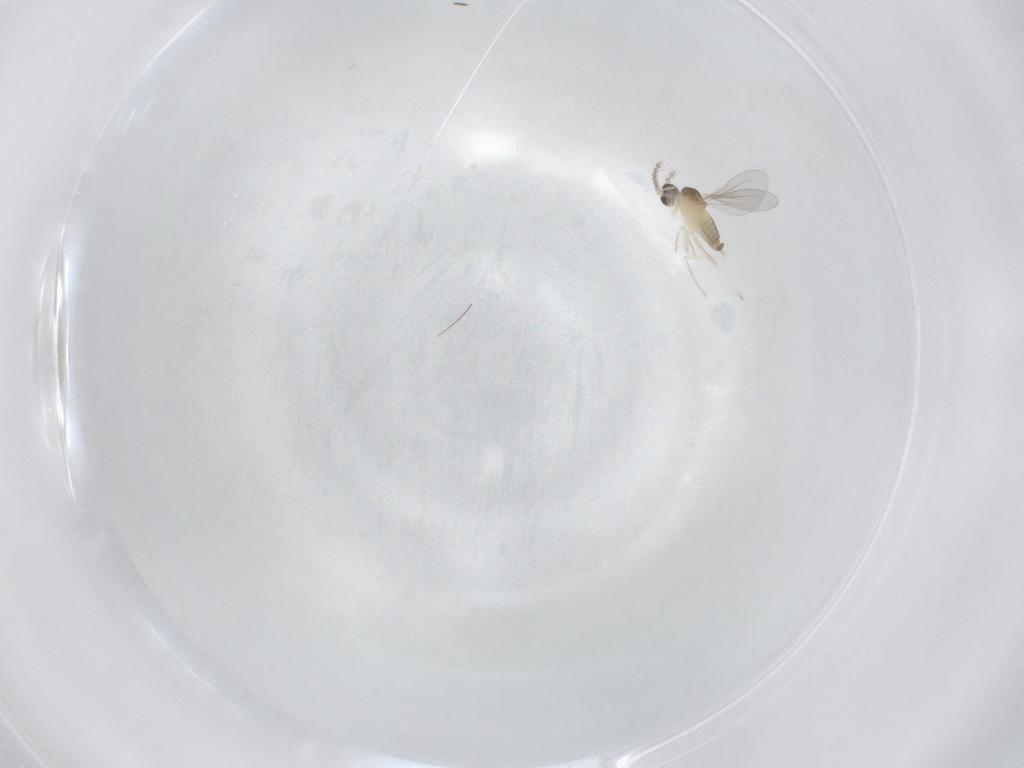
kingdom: Animalia
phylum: Arthropoda
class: Insecta
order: Diptera
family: Cecidomyiidae
